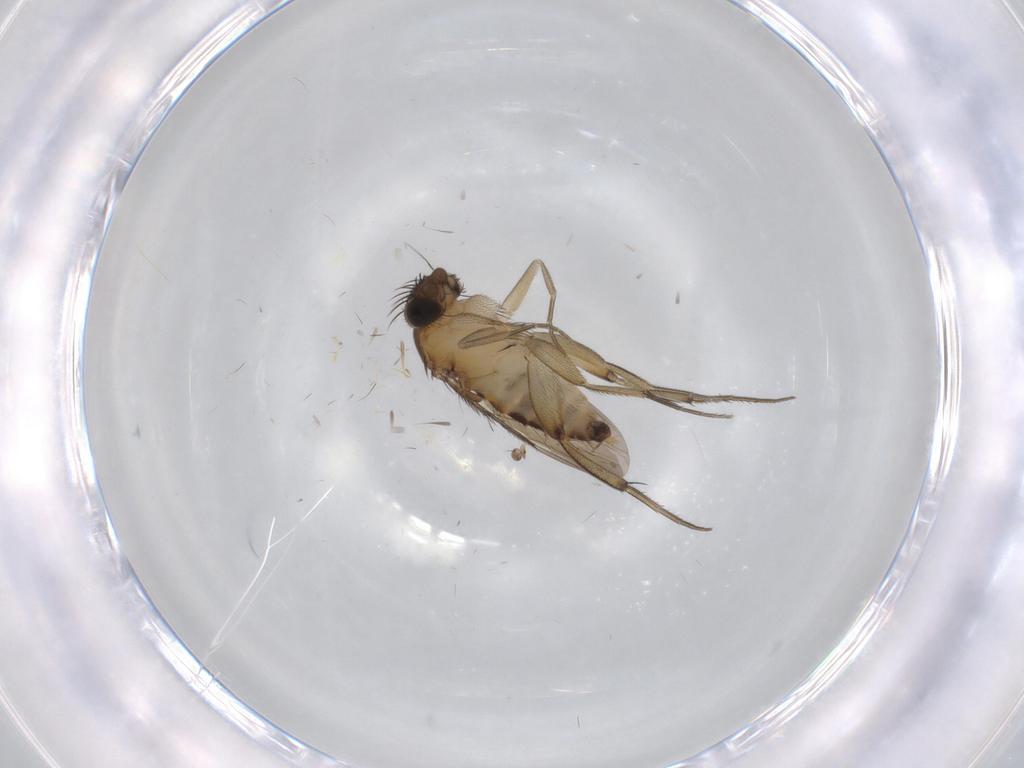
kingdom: Animalia
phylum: Arthropoda
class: Insecta
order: Diptera
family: Phoridae
